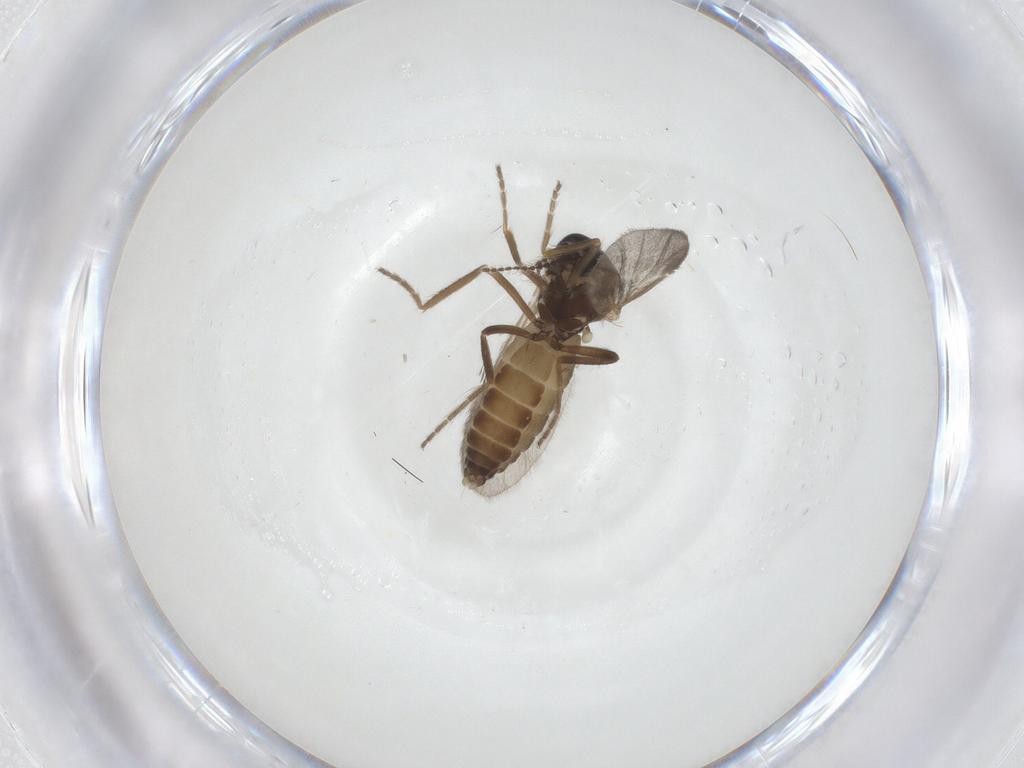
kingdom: Animalia
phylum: Arthropoda
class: Insecta
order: Diptera
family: Ceratopogonidae
